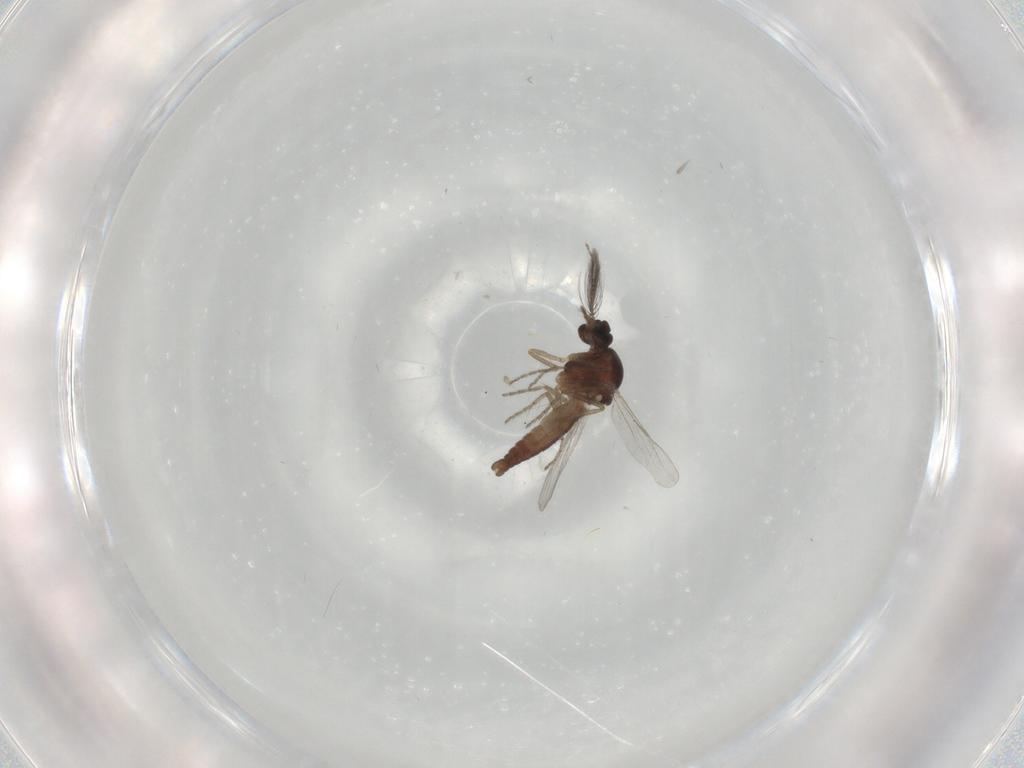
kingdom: Animalia
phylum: Arthropoda
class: Insecta
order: Diptera
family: Ceratopogonidae
